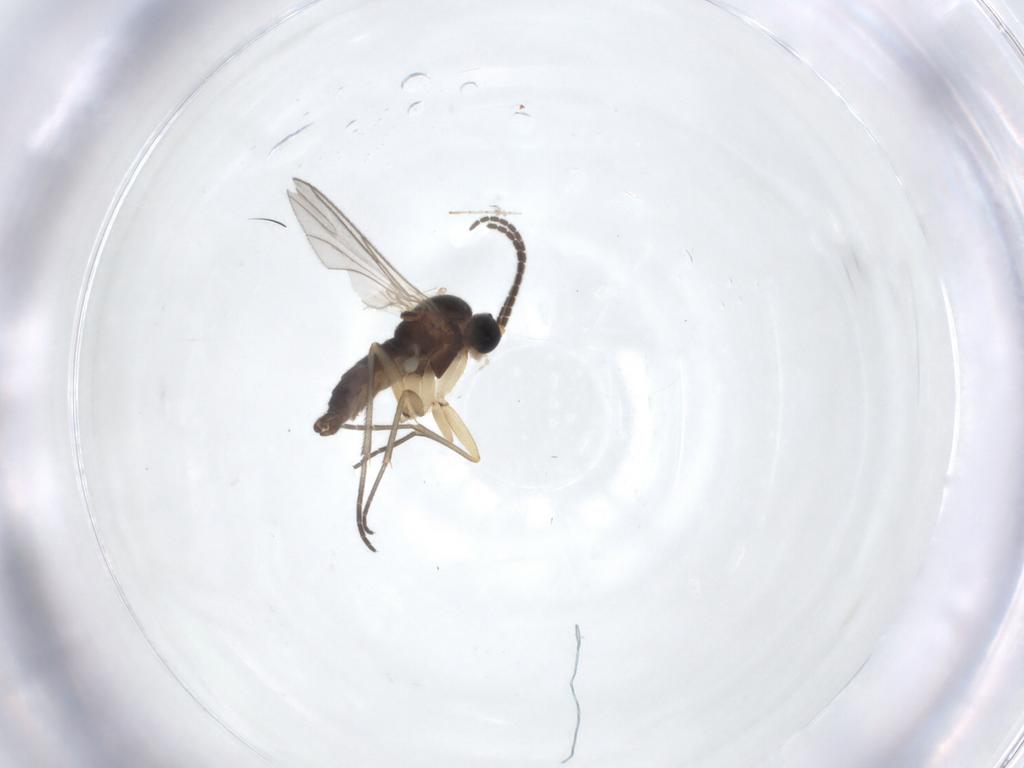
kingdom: Animalia
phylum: Arthropoda
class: Insecta
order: Diptera
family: Sciaridae
